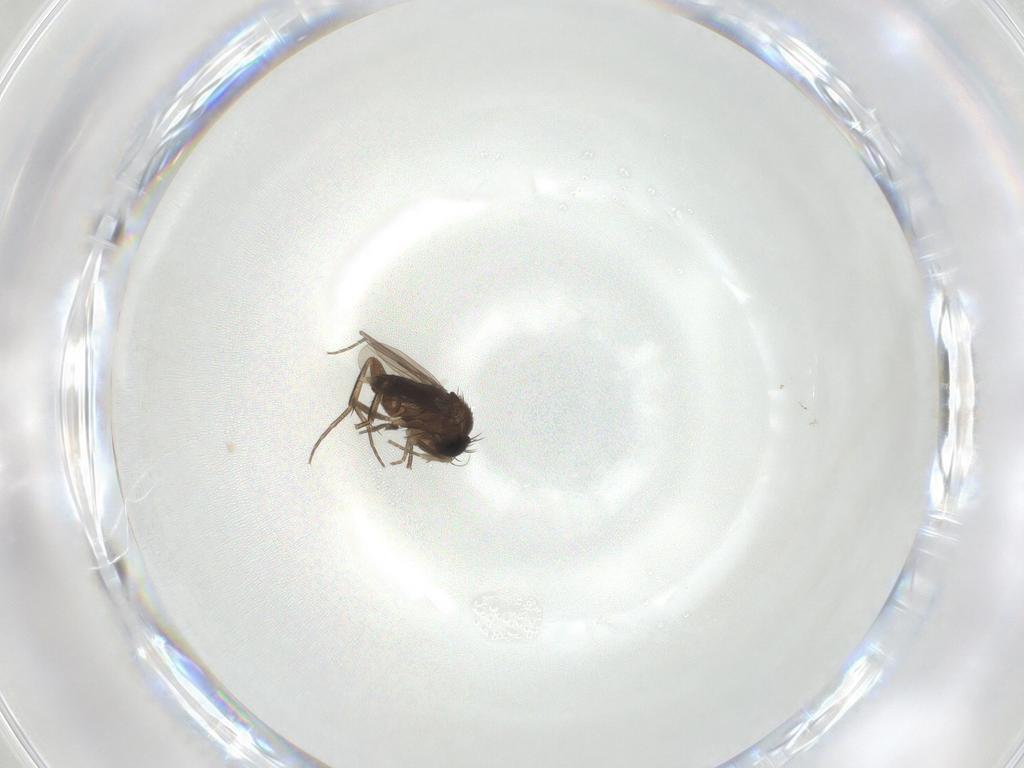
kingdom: Animalia
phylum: Arthropoda
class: Insecta
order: Diptera
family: Phoridae
